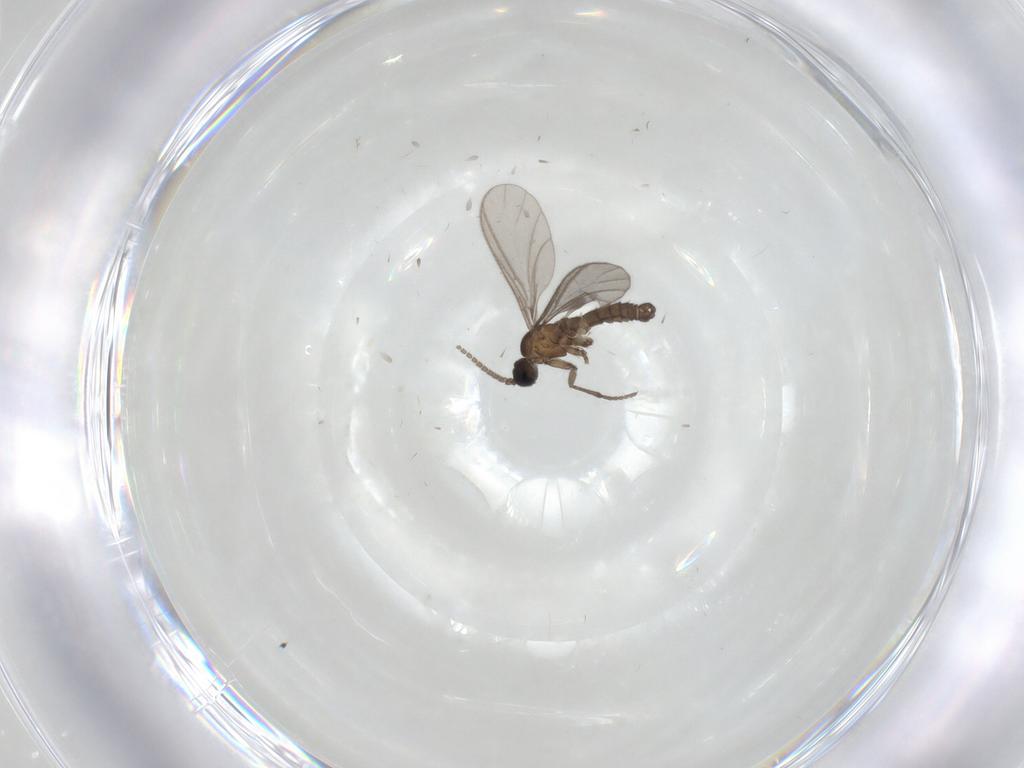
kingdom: Animalia
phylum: Arthropoda
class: Insecta
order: Diptera
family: Sciaridae
